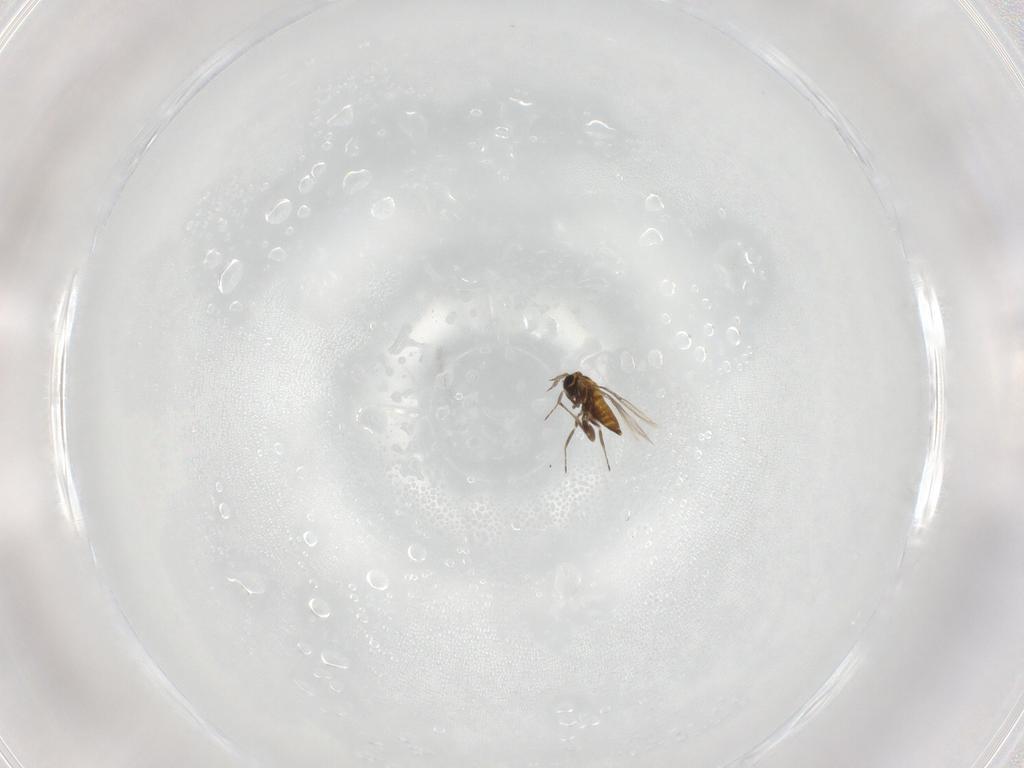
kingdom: Animalia
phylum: Arthropoda
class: Insecta
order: Hymenoptera
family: Trichogrammatidae
